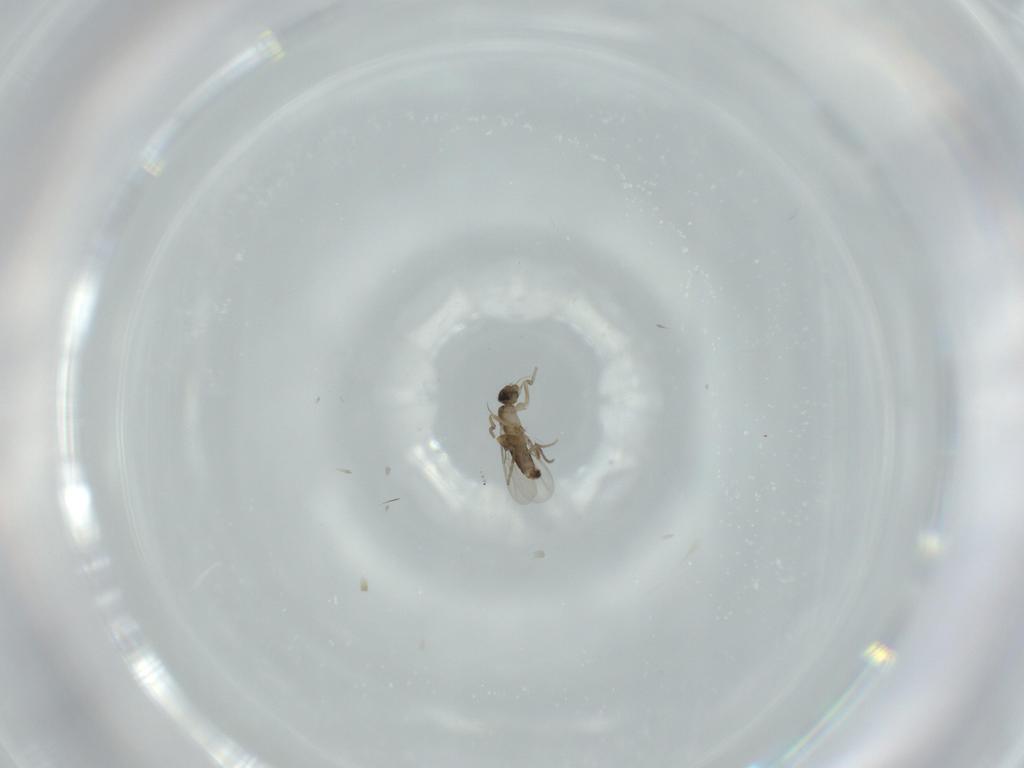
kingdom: Animalia
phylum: Arthropoda
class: Insecta
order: Diptera
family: Phoridae
